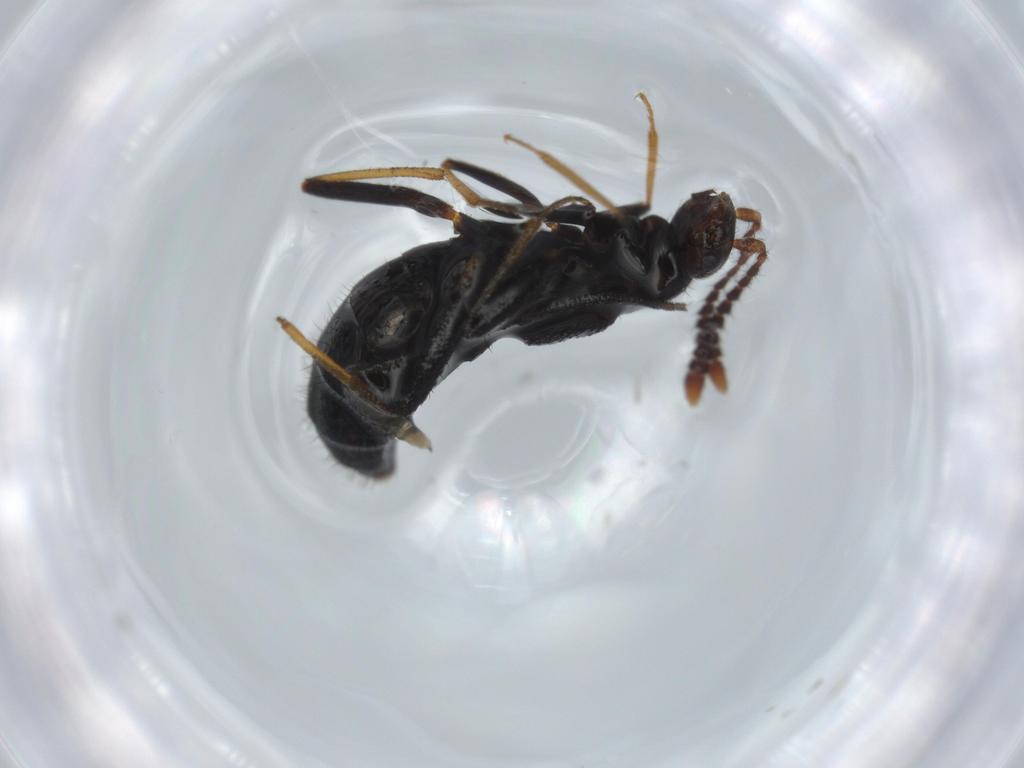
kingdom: Animalia
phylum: Arthropoda
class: Insecta
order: Coleoptera
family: Staphylinidae
